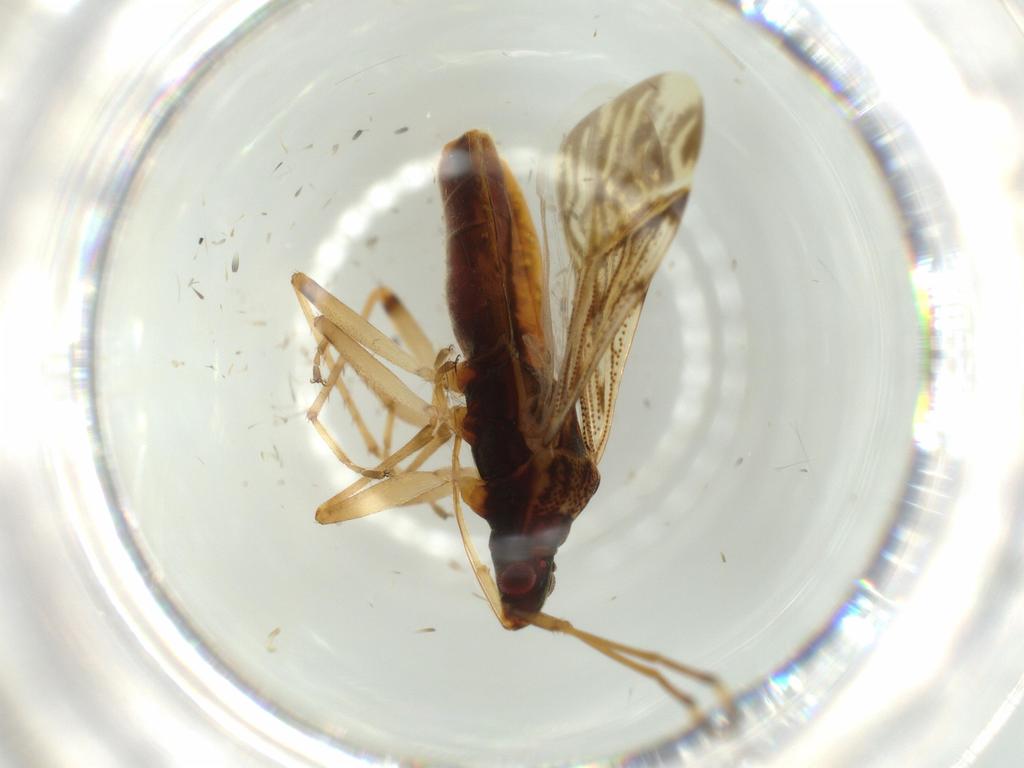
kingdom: Animalia
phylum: Arthropoda
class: Insecta
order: Hemiptera
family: Rhyparochromidae
